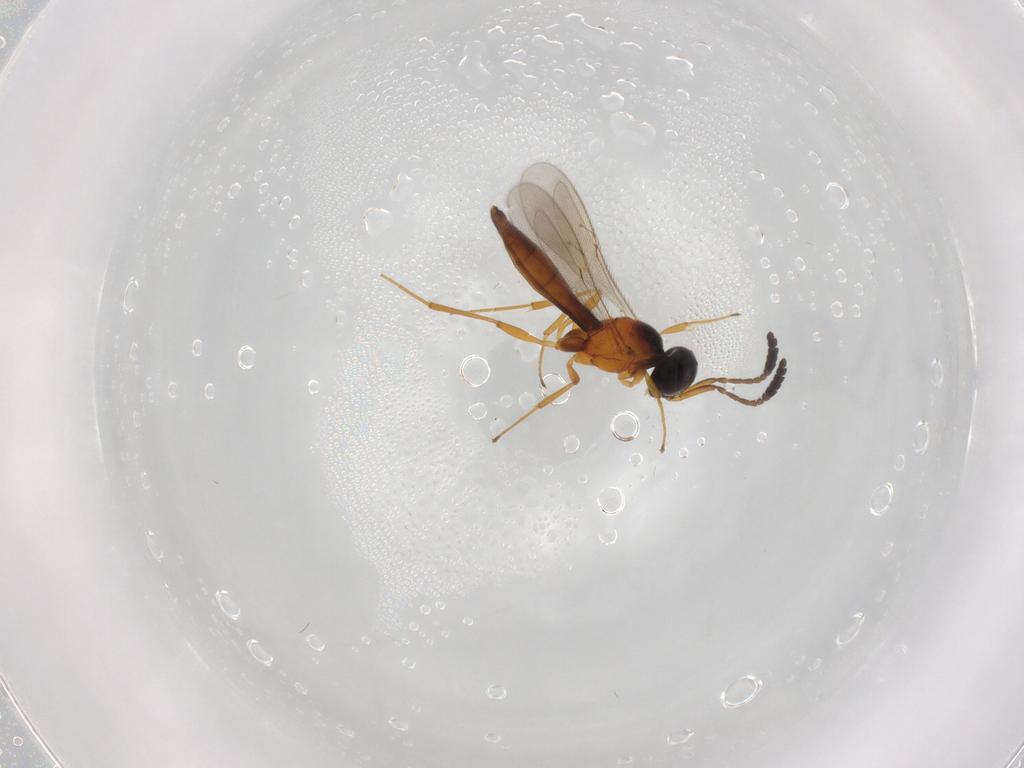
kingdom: Animalia
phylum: Arthropoda
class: Insecta
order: Hymenoptera
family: Scelionidae
